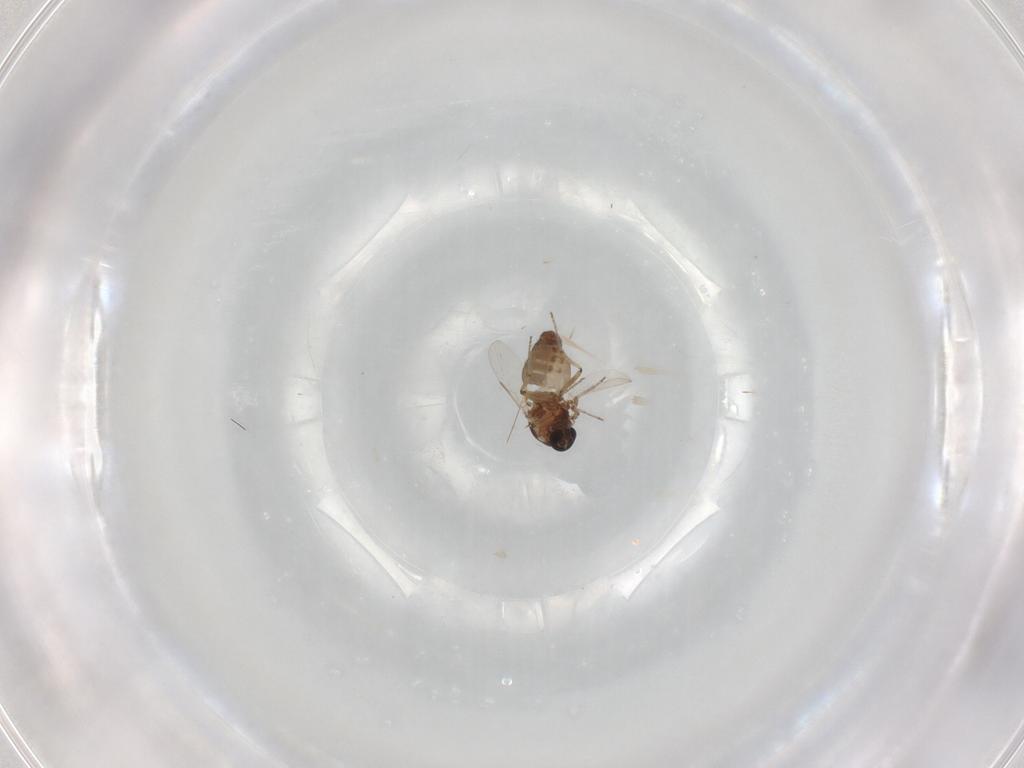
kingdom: Animalia
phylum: Arthropoda
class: Insecta
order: Diptera
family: Ceratopogonidae
